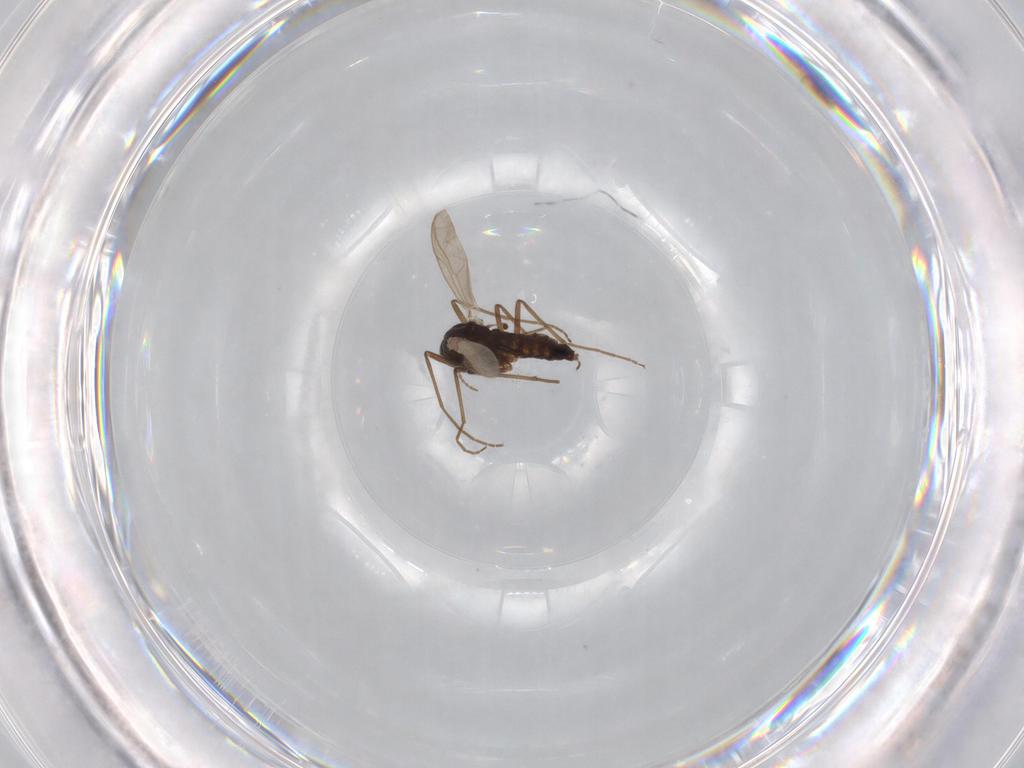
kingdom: Animalia
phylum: Arthropoda
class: Insecta
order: Diptera
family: Chironomidae
